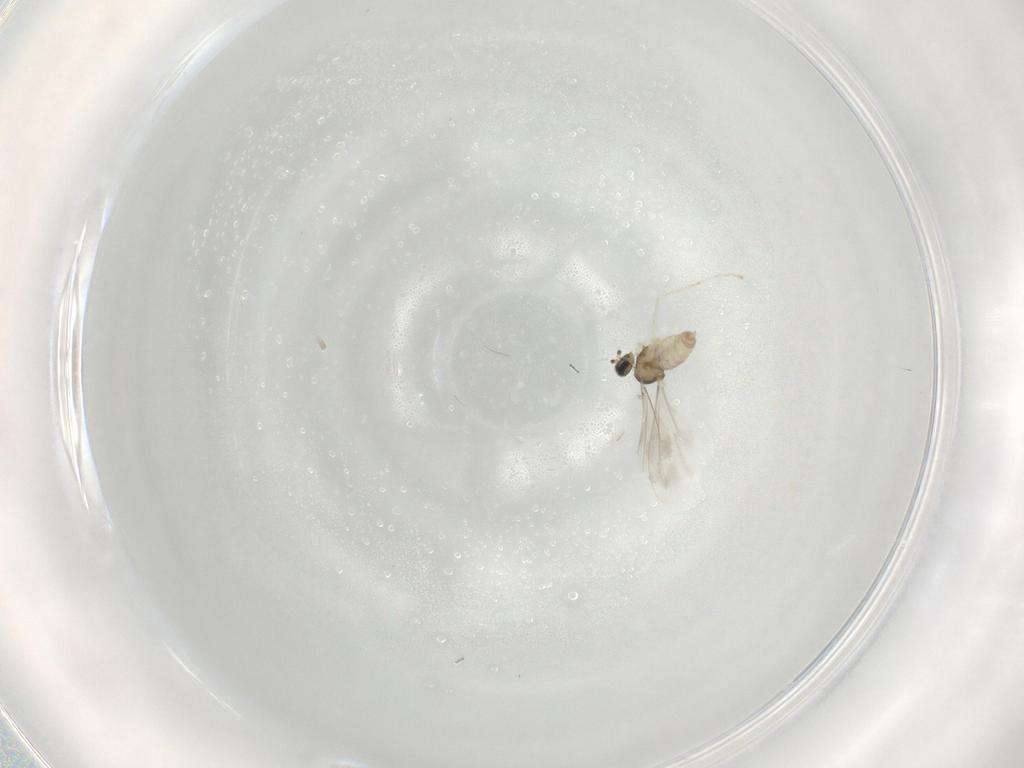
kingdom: Animalia
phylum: Arthropoda
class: Insecta
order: Diptera
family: Cecidomyiidae
